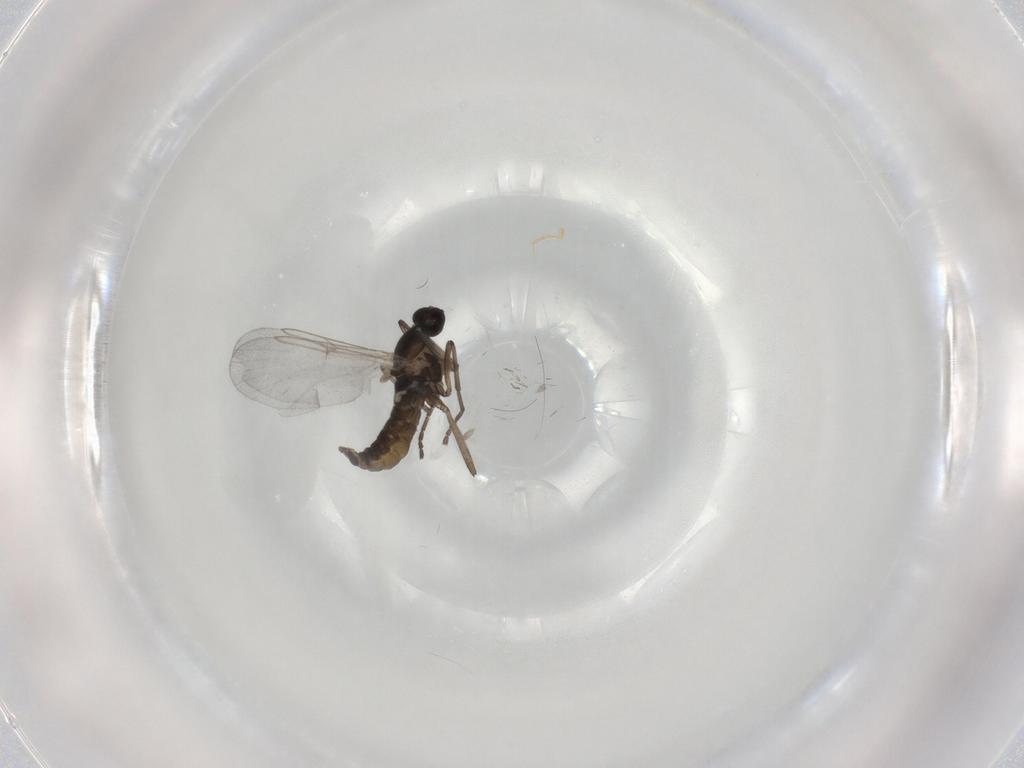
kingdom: Animalia
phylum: Arthropoda
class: Insecta
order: Diptera
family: Cecidomyiidae
